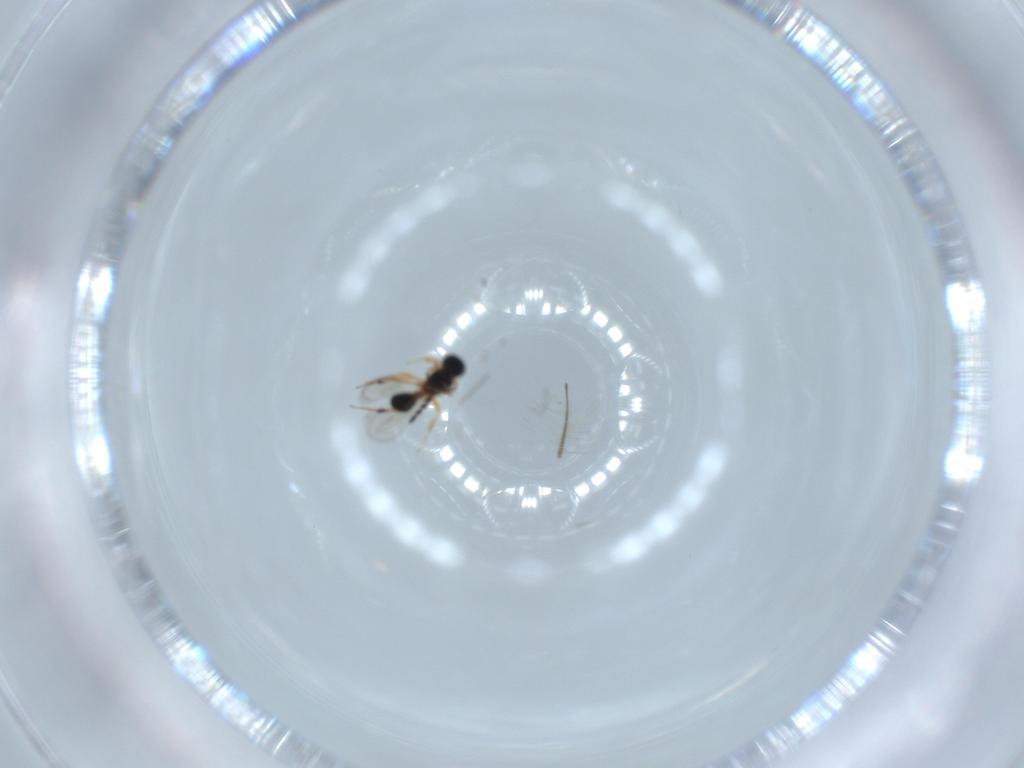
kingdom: Animalia
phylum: Arthropoda
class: Insecta
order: Hymenoptera
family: Platygastridae
